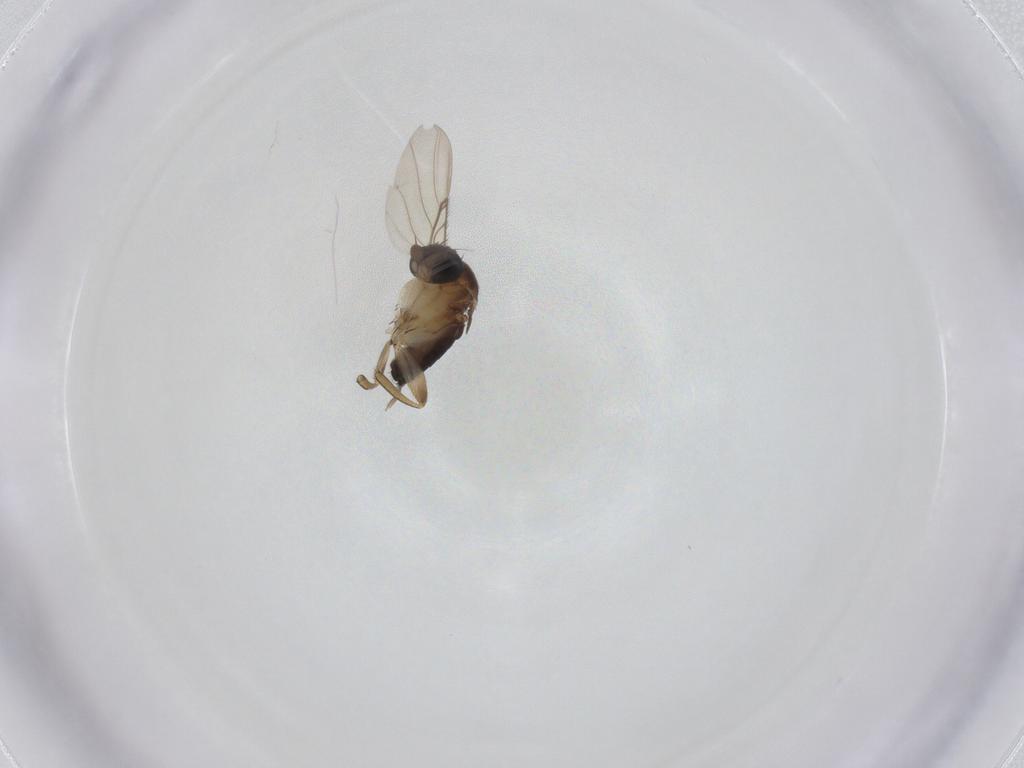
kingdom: Animalia
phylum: Arthropoda
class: Insecta
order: Diptera
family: Phoridae
